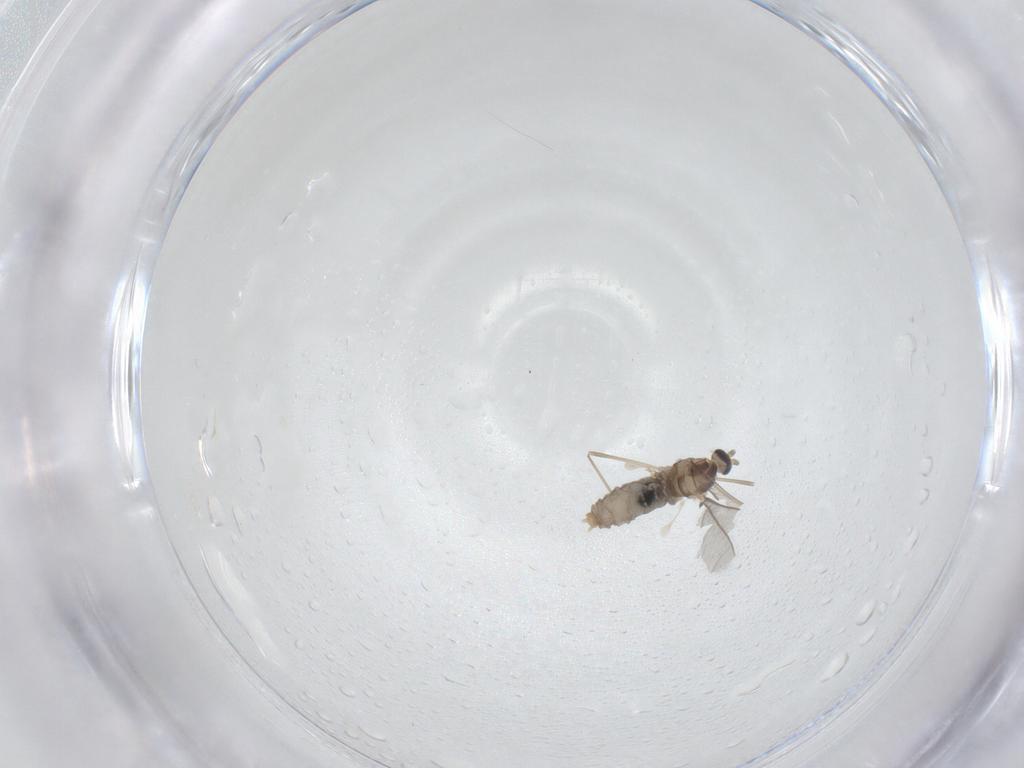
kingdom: Animalia
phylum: Arthropoda
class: Insecta
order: Diptera
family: Cecidomyiidae
